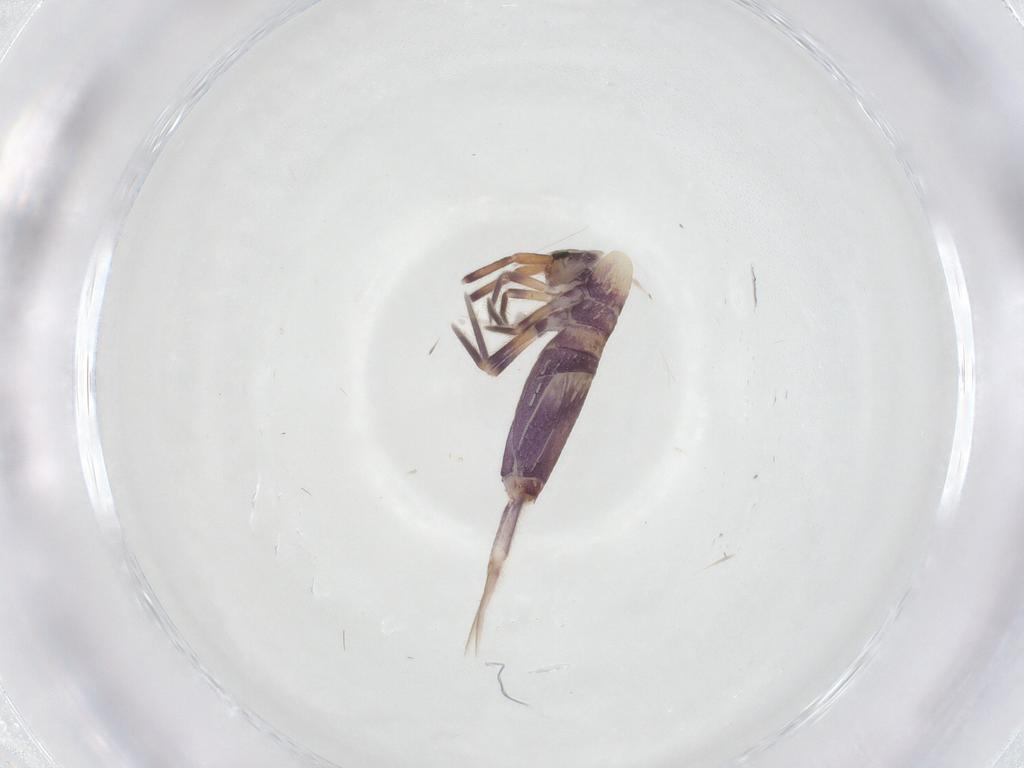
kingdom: Animalia
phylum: Arthropoda
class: Collembola
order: Entomobryomorpha
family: Entomobryidae
